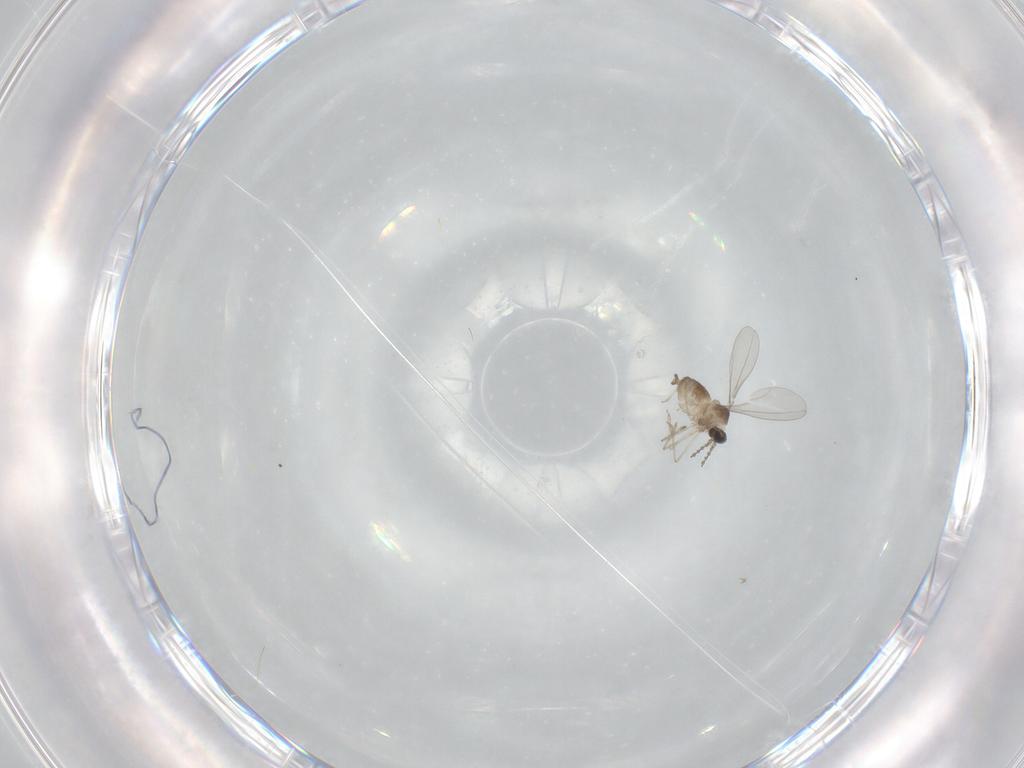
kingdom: Animalia
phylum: Arthropoda
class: Insecta
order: Diptera
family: Cecidomyiidae
